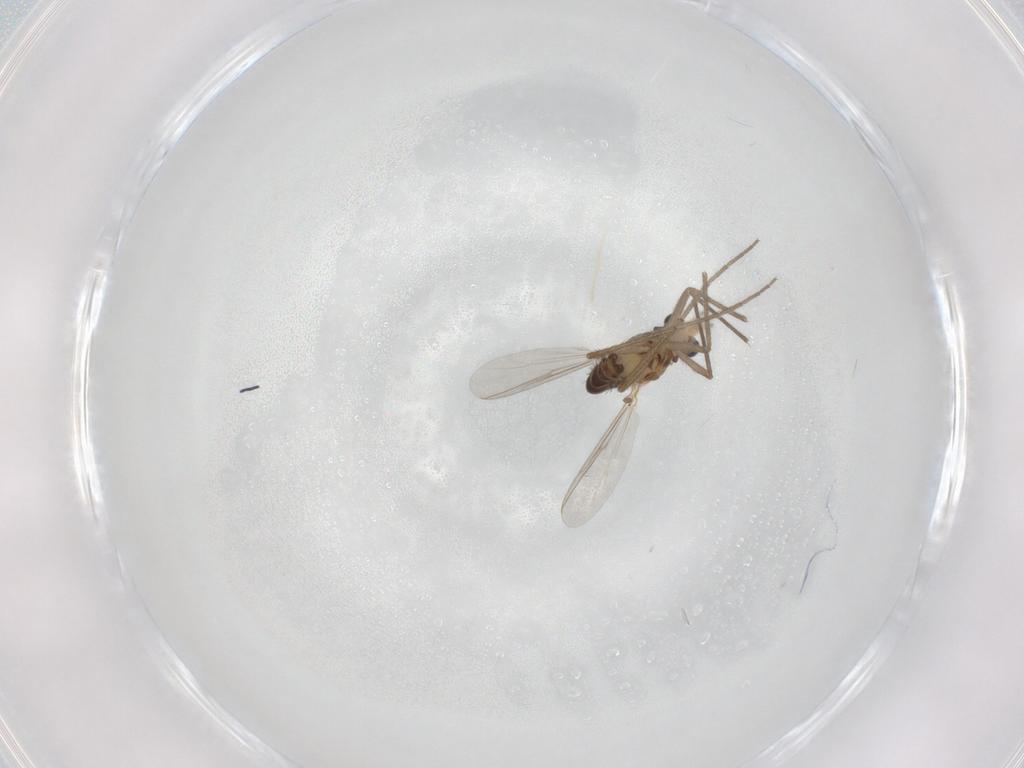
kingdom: Animalia
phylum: Arthropoda
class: Insecta
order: Diptera
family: Chironomidae
